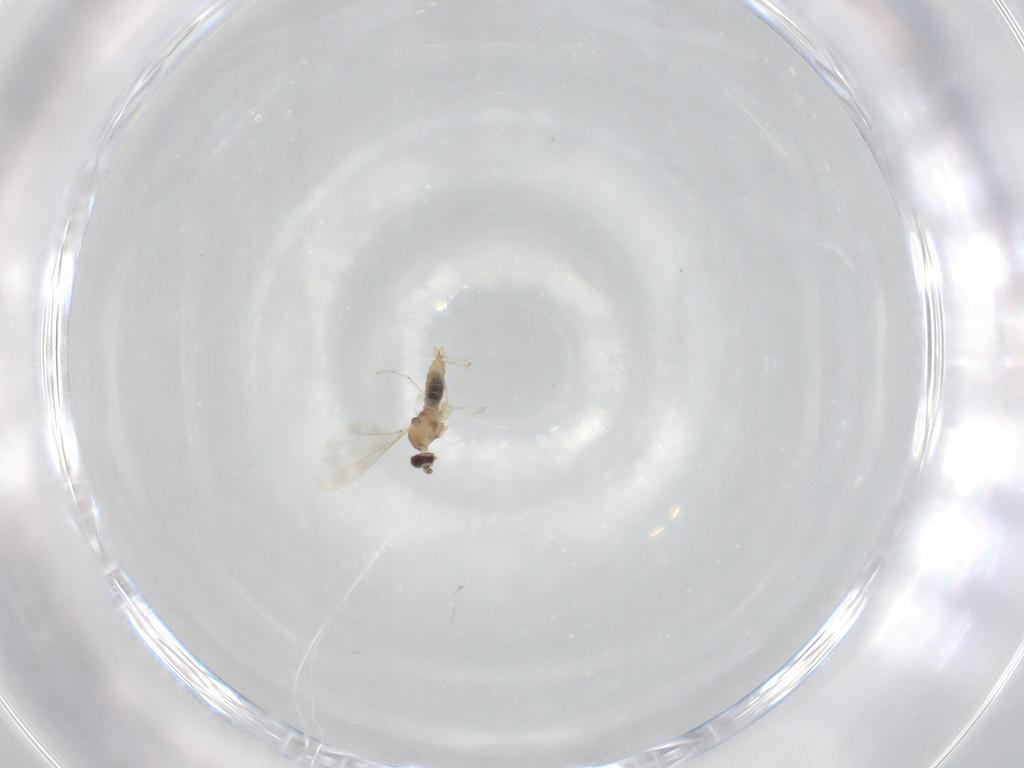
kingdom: Animalia
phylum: Arthropoda
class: Insecta
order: Diptera
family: Cecidomyiidae
